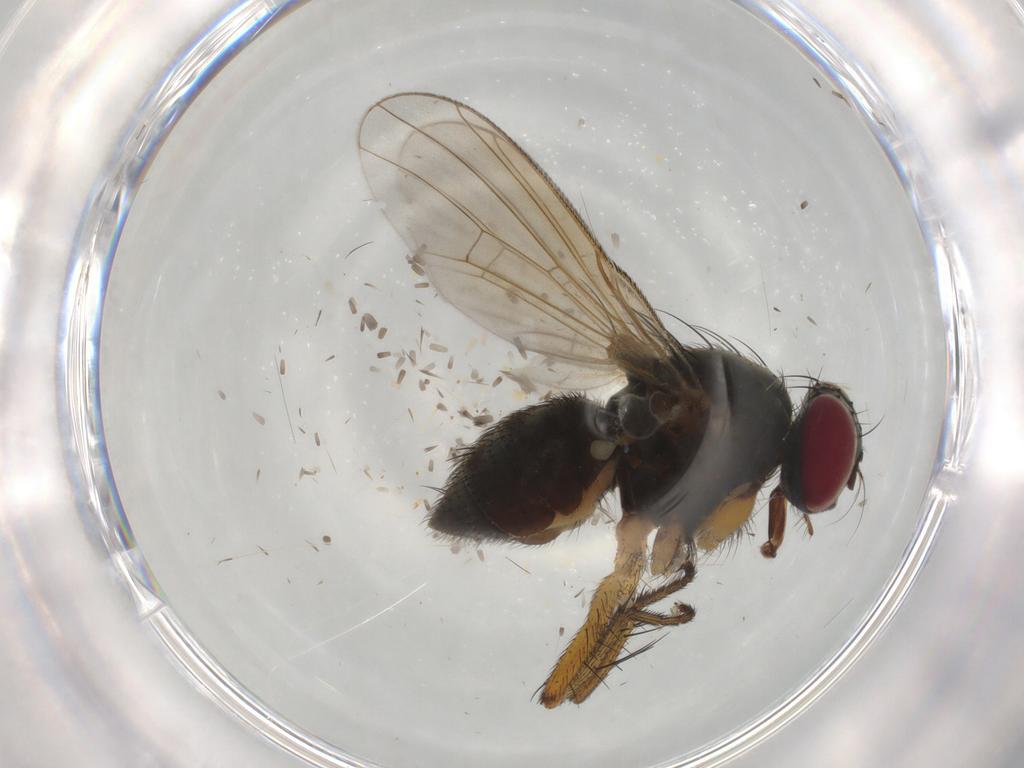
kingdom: Animalia
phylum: Arthropoda
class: Insecta
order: Diptera
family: Muscidae
